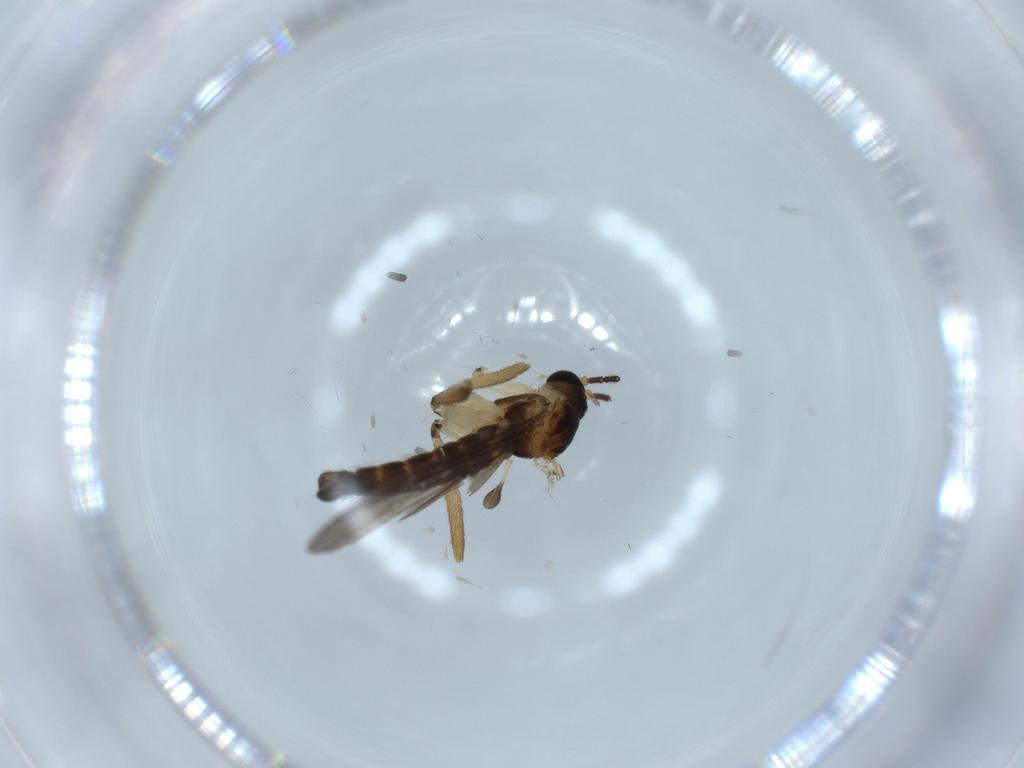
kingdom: Animalia
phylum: Arthropoda
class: Insecta
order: Diptera
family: Sciaridae
